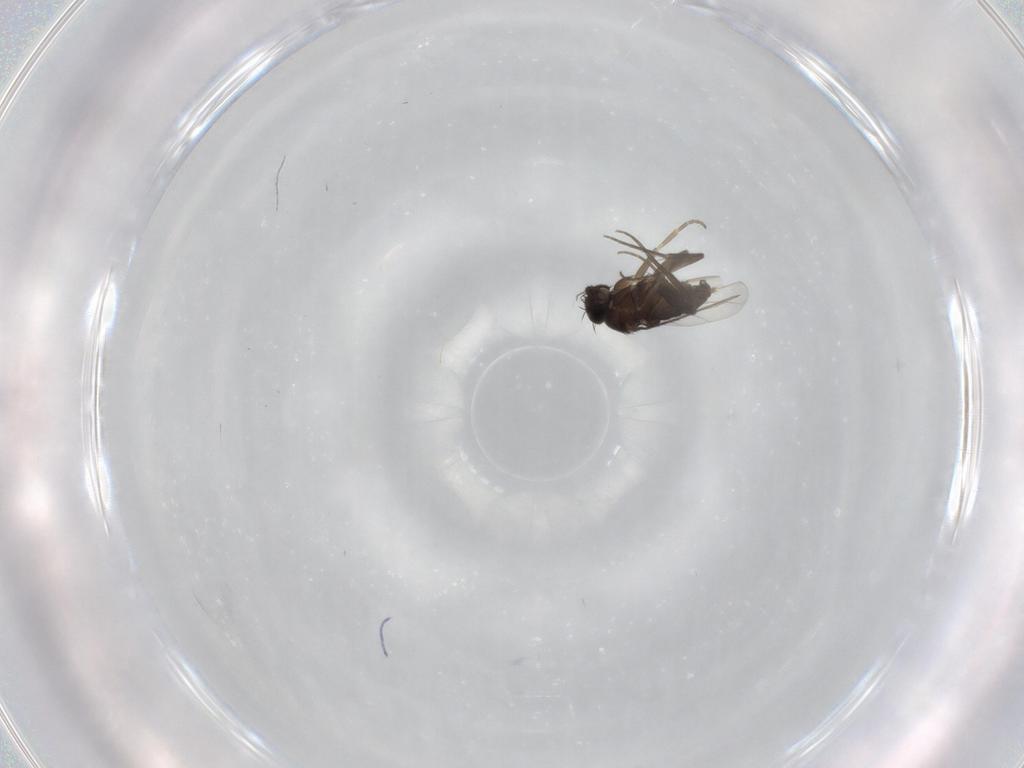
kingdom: Animalia
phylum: Arthropoda
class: Insecta
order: Diptera
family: Phoridae
